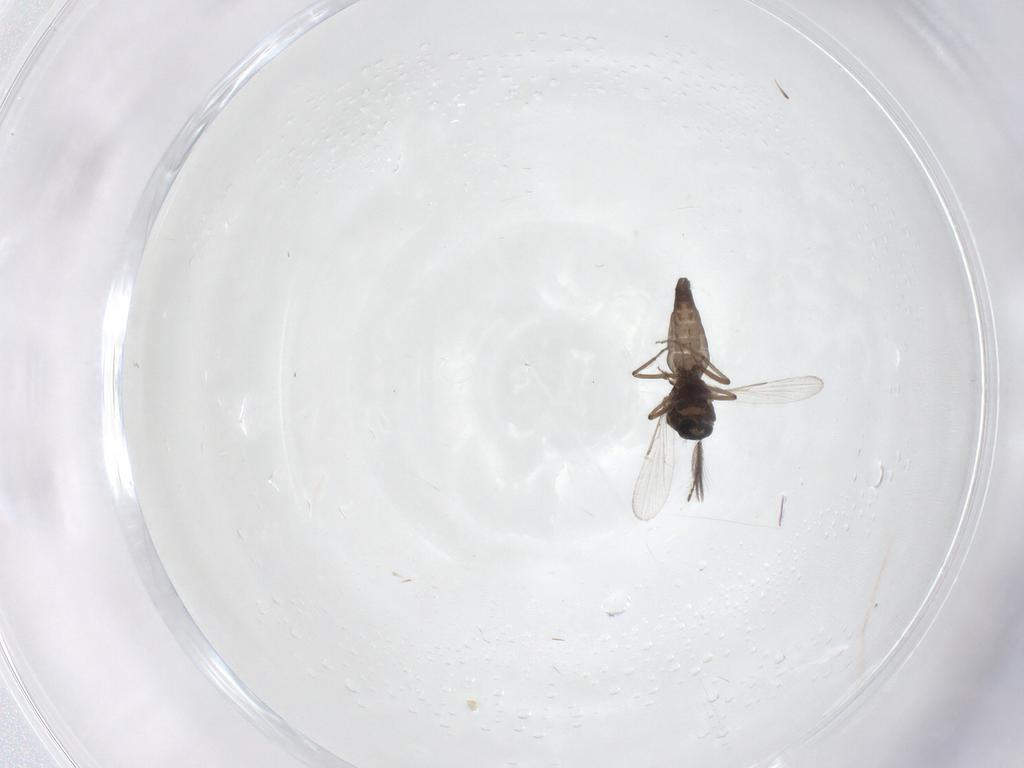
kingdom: Animalia
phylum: Arthropoda
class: Insecta
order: Diptera
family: Ceratopogonidae
